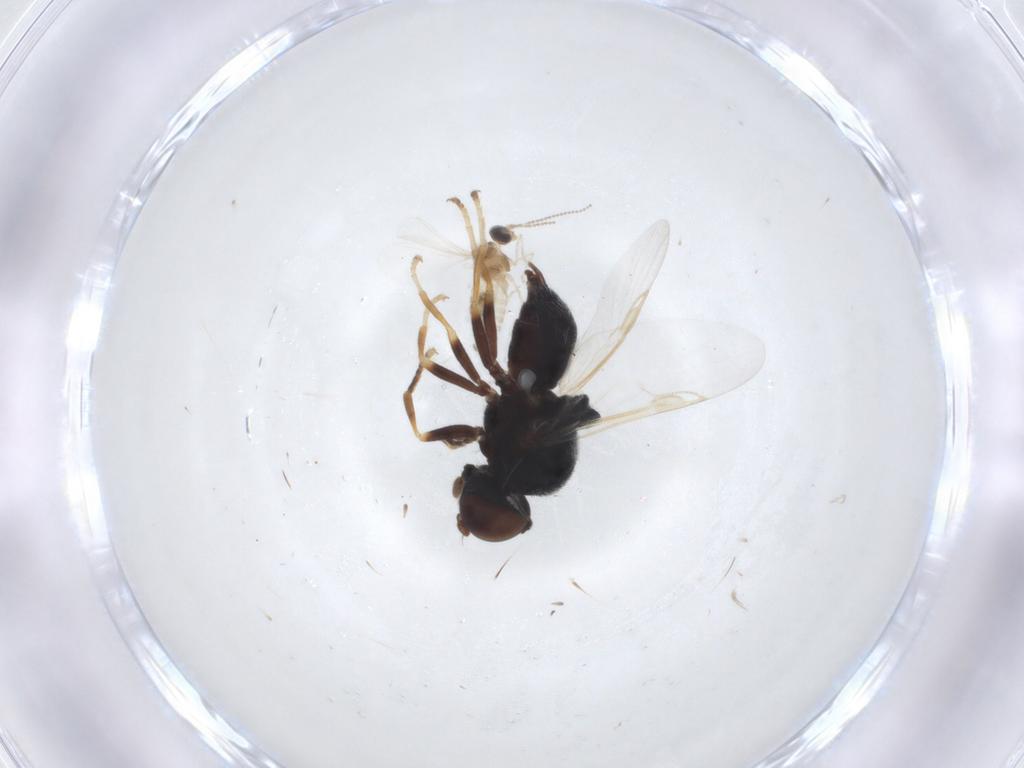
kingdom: Animalia
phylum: Arthropoda
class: Insecta
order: Diptera
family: Stratiomyidae
